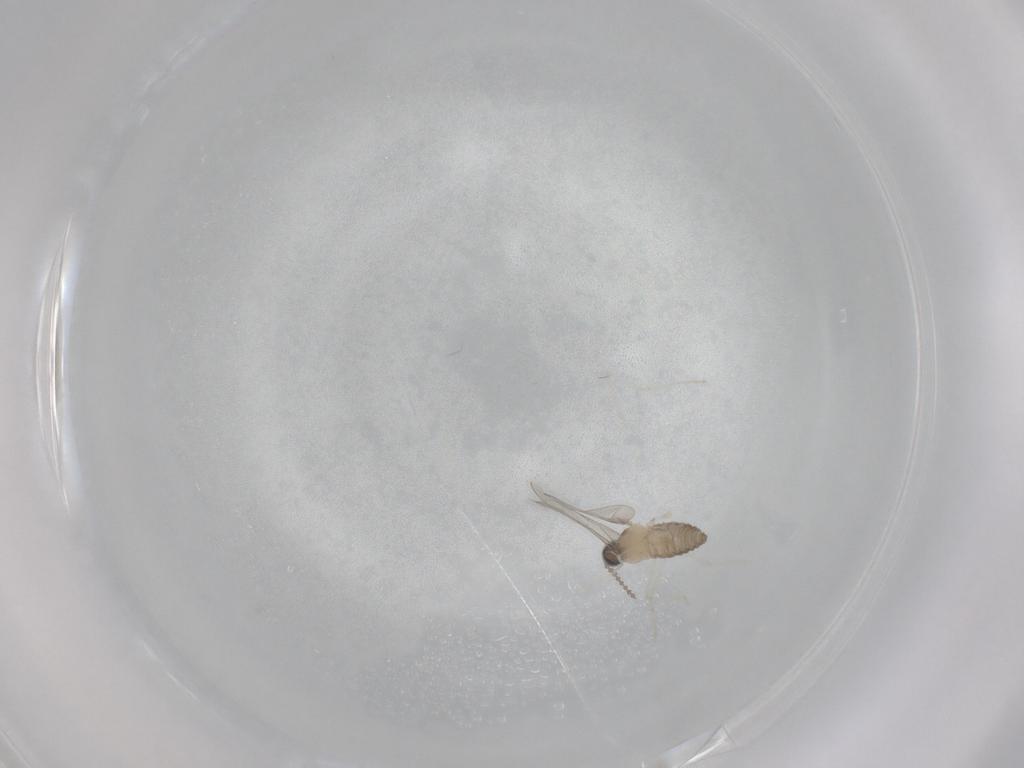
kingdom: Animalia
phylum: Arthropoda
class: Insecta
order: Diptera
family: Cecidomyiidae
